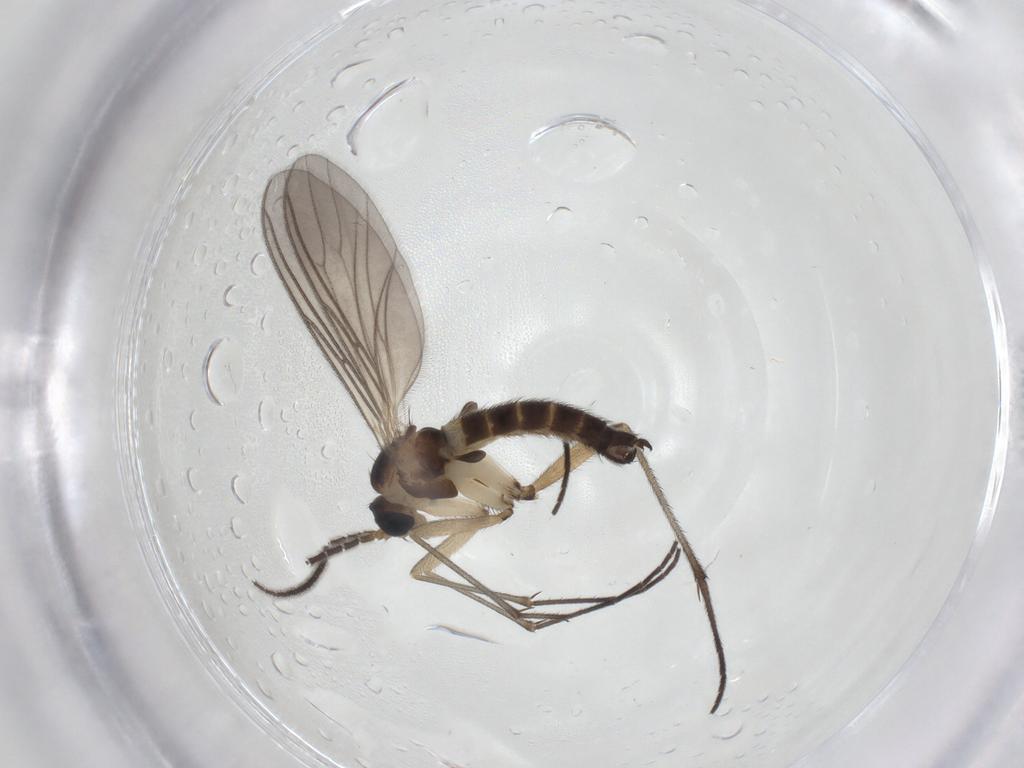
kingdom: Animalia
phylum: Arthropoda
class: Insecta
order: Diptera
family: Sciaridae
